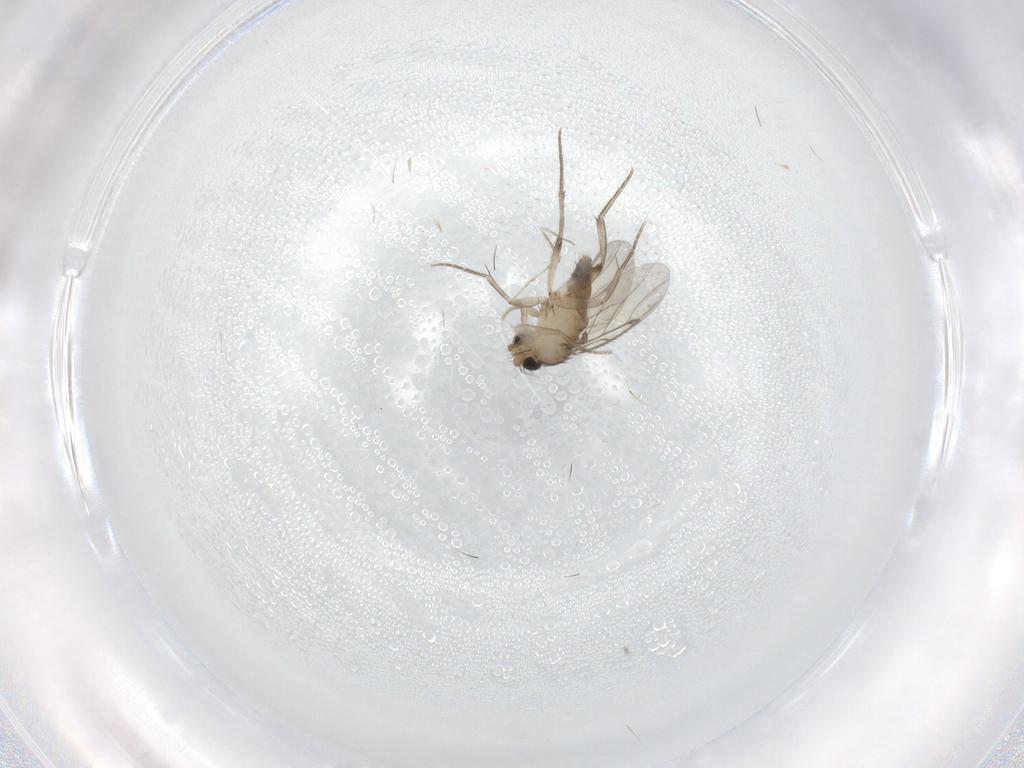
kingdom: Animalia
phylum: Arthropoda
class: Insecta
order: Diptera
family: Phoridae
